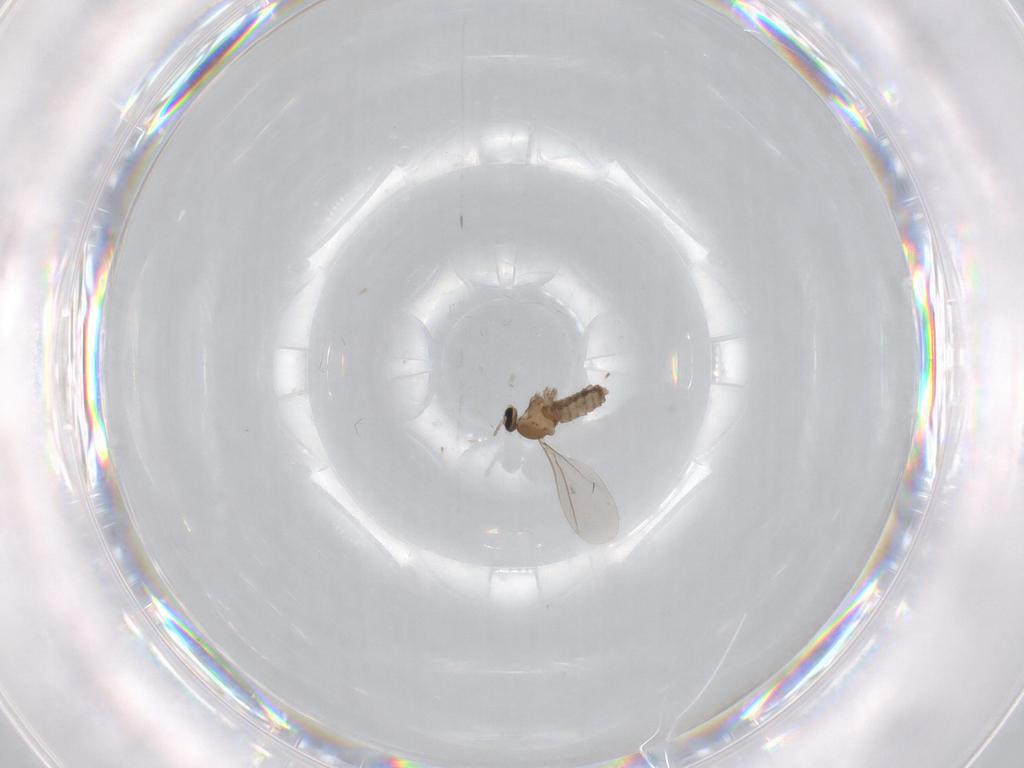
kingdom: Animalia
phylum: Arthropoda
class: Insecta
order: Diptera
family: Cecidomyiidae
